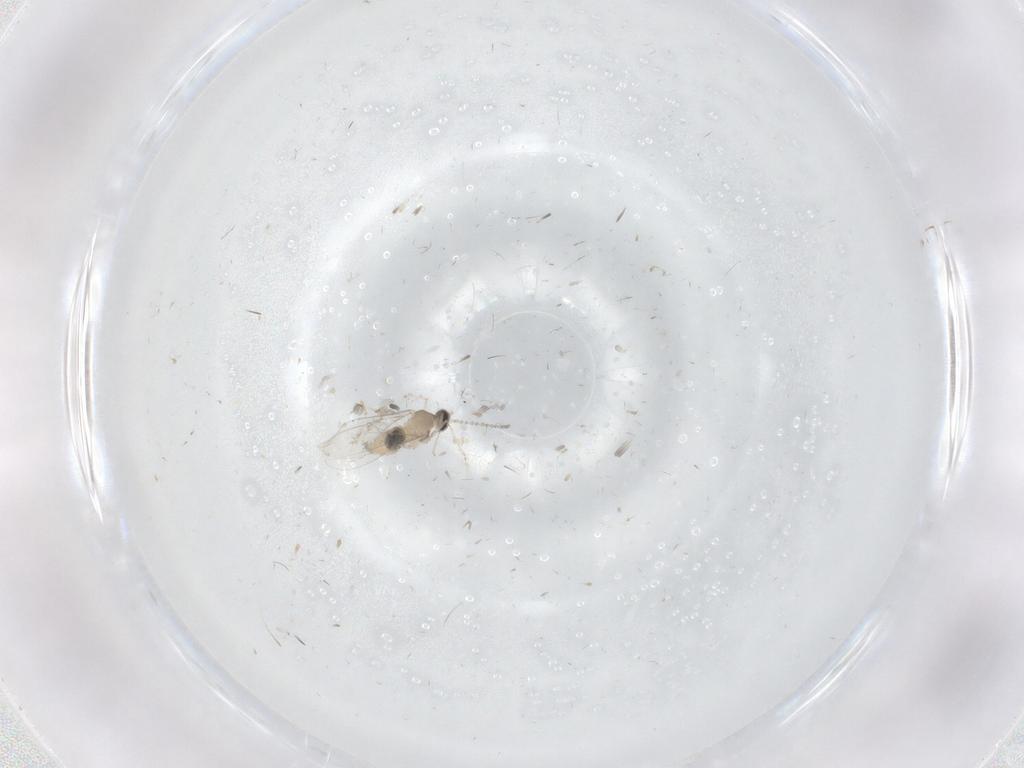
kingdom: Animalia
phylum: Arthropoda
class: Insecta
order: Diptera
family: Cecidomyiidae
